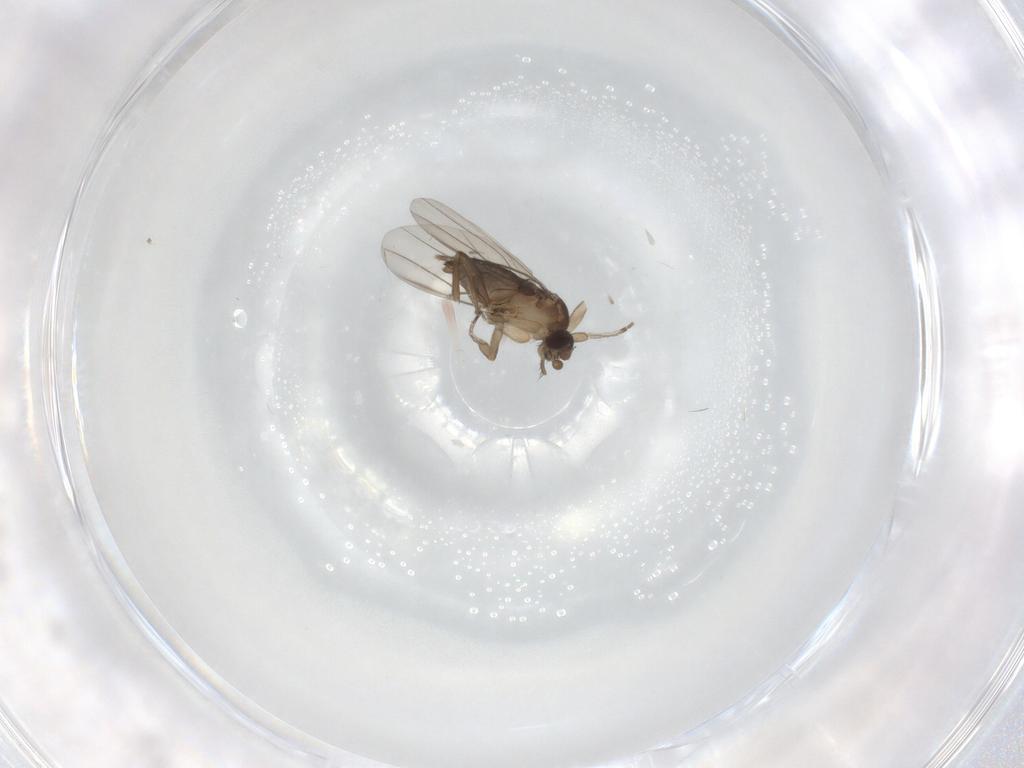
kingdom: Animalia
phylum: Arthropoda
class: Insecta
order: Diptera
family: Phoridae
